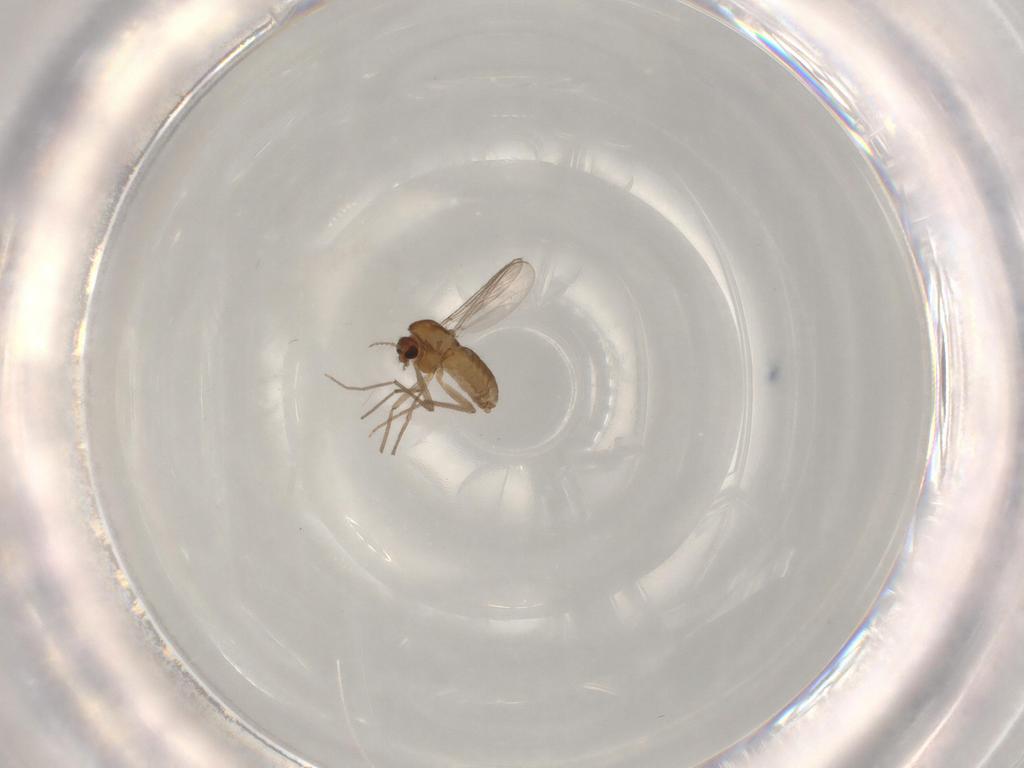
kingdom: Animalia
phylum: Arthropoda
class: Insecta
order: Diptera
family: Chironomidae
